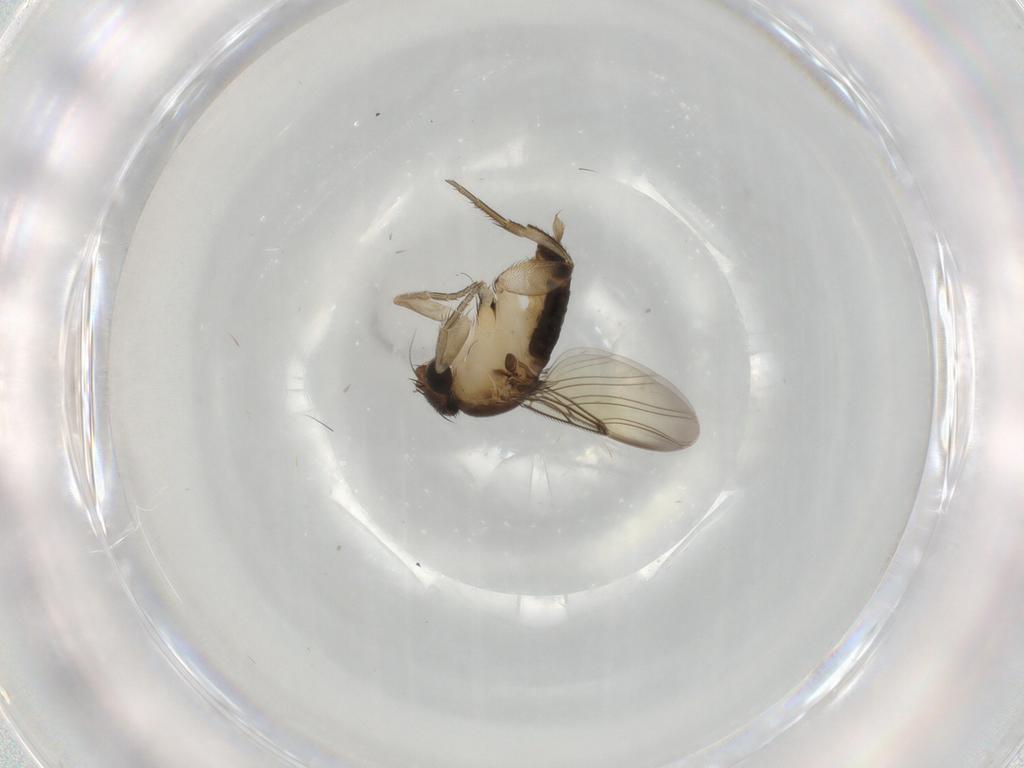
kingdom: Animalia
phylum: Arthropoda
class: Insecta
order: Diptera
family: Phoridae
